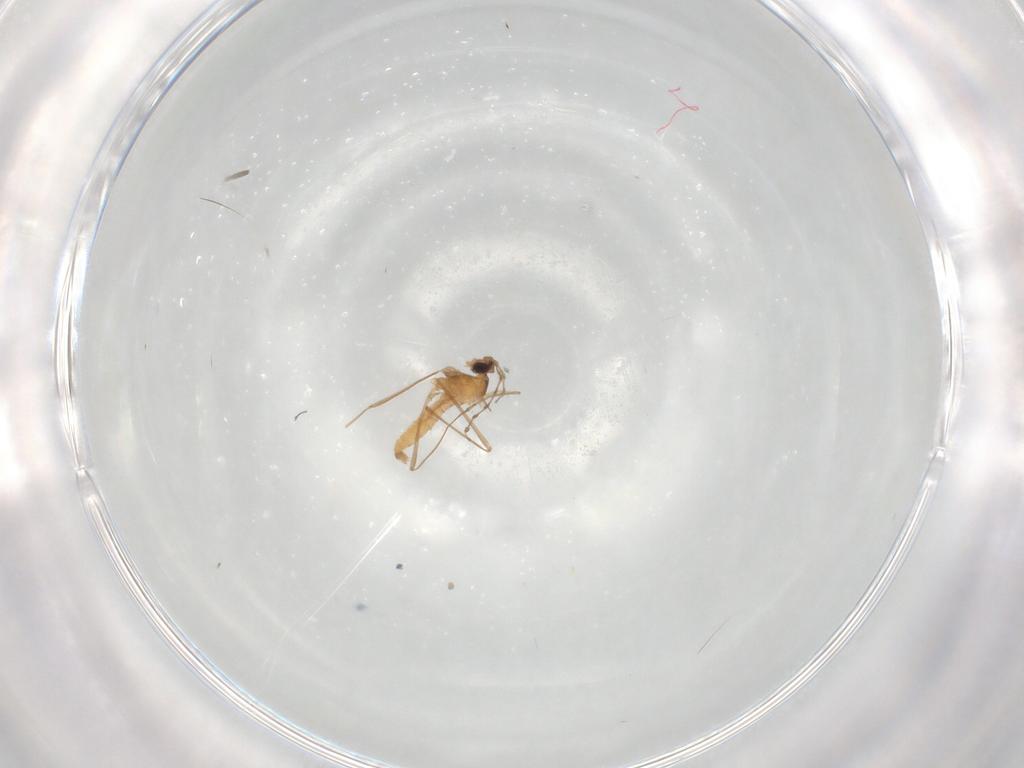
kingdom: Animalia
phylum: Arthropoda
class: Insecta
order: Diptera
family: Cecidomyiidae
